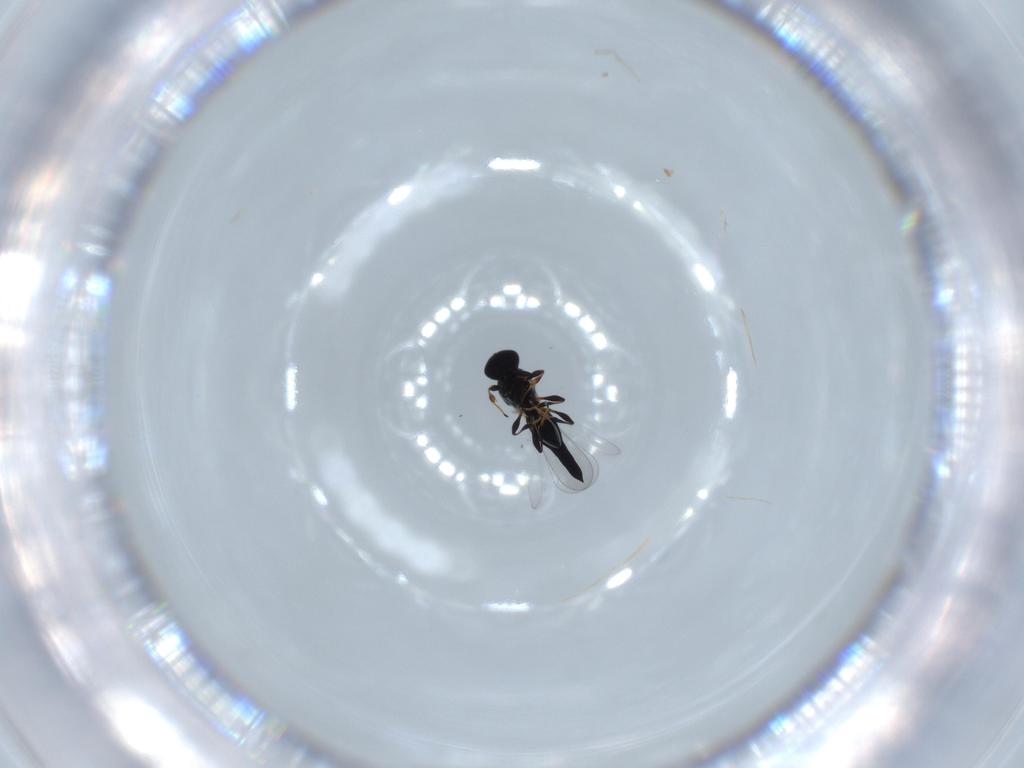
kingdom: Animalia
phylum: Arthropoda
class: Insecta
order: Hymenoptera
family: Platygastridae
